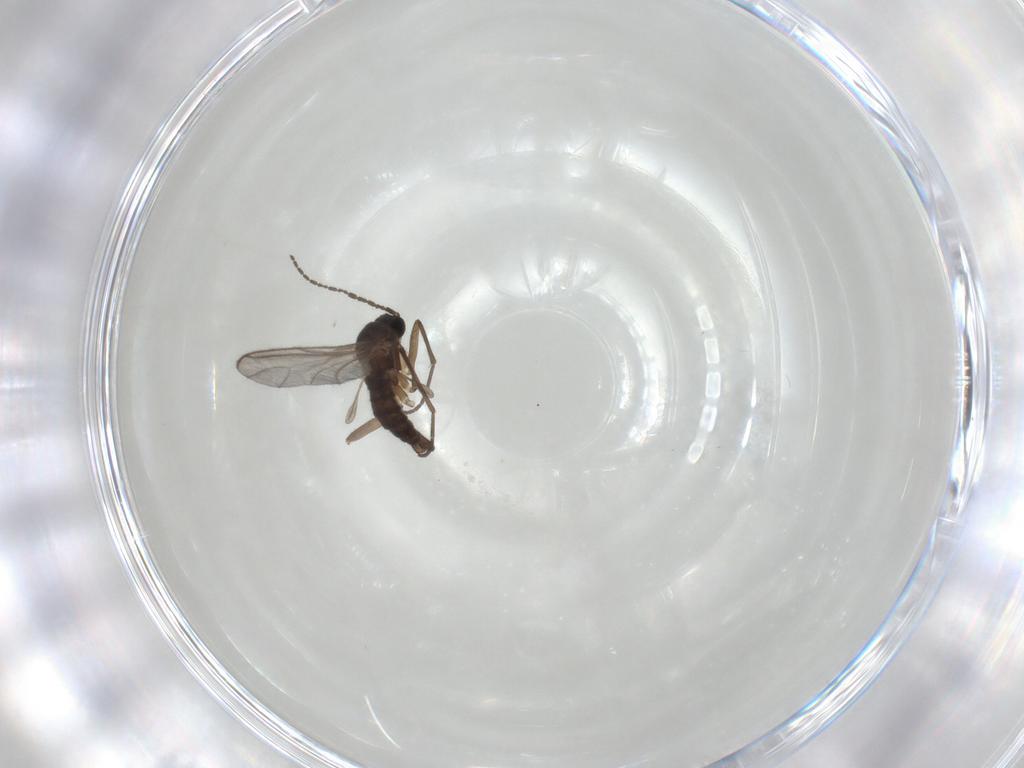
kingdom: Animalia
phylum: Arthropoda
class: Insecta
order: Diptera
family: Sciaridae
